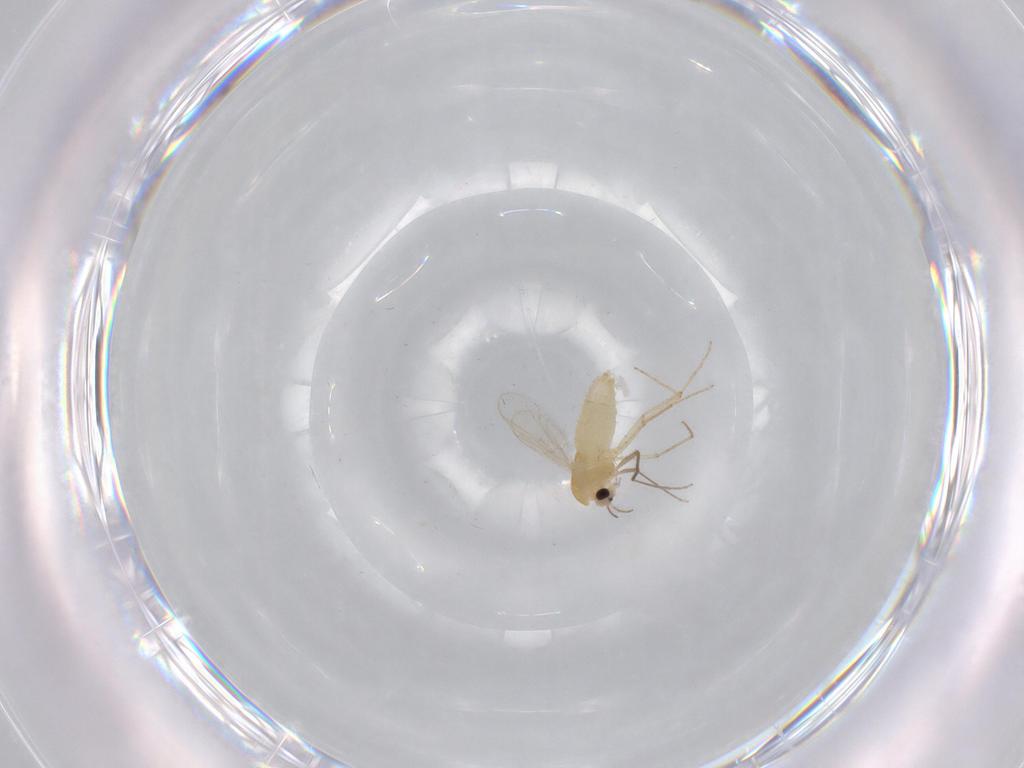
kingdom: Animalia
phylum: Arthropoda
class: Insecta
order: Diptera
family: Chironomidae
